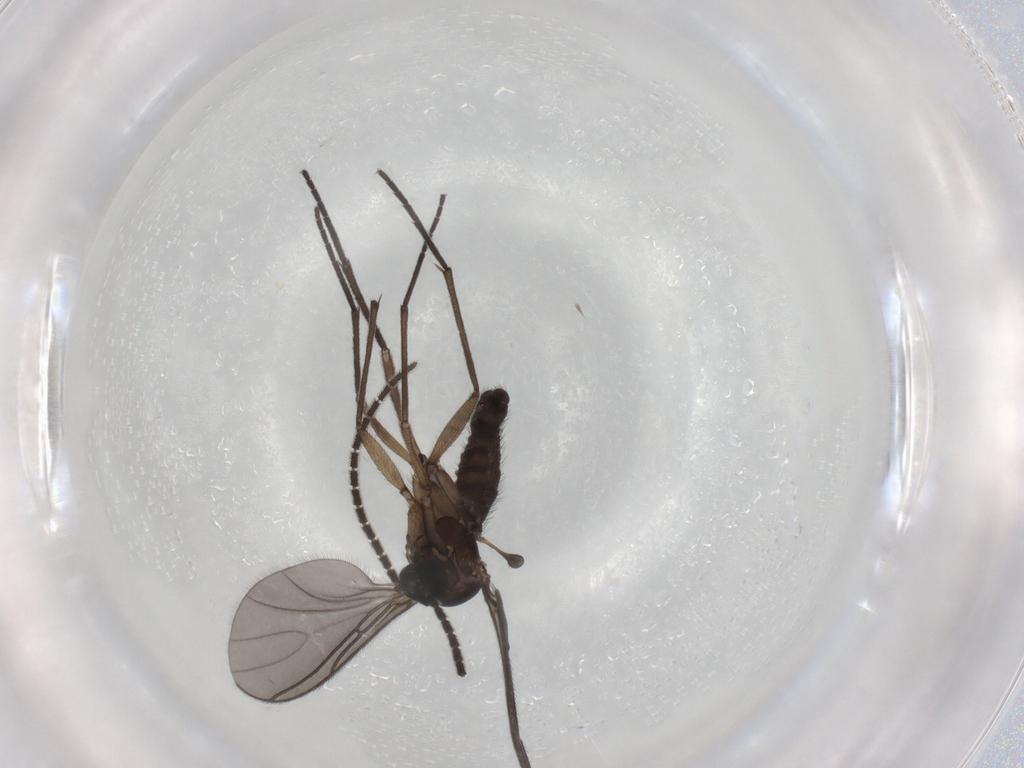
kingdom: Animalia
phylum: Arthropoda
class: Insecta
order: Diptera
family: Sciaridae
